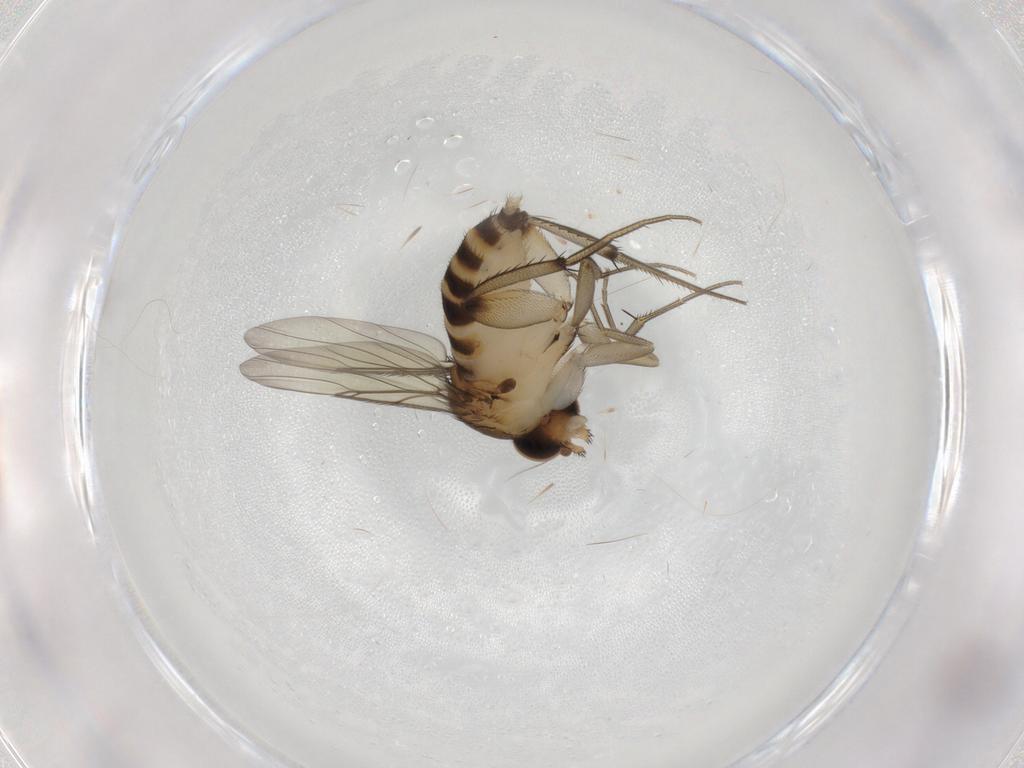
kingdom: Animalia
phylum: Arthropoda
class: Insecta
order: Diptera
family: Phoridae
